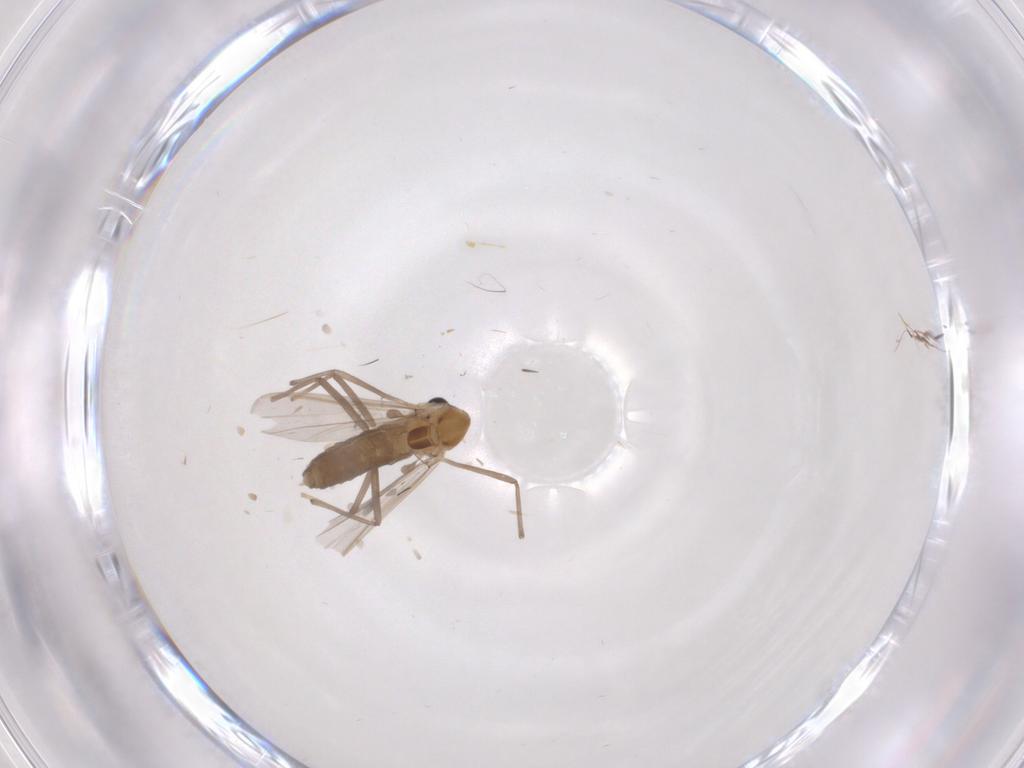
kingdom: Animalia
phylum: Arthropoda
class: Insecta
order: Diptera
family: Chironomidae
